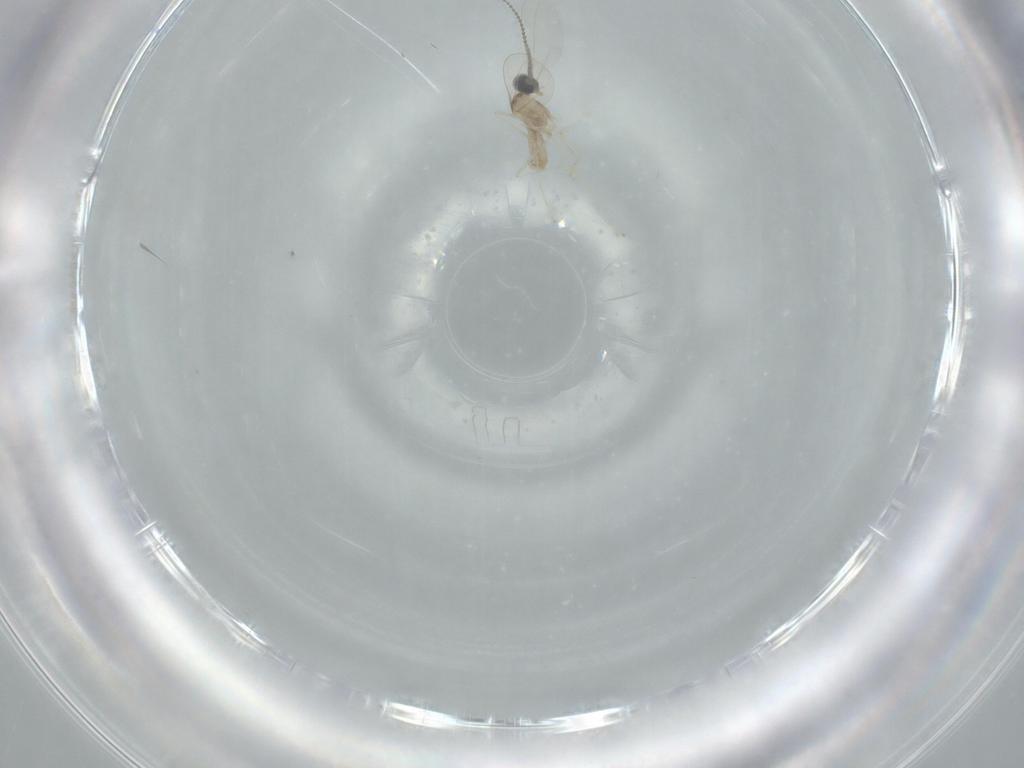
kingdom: Animalia
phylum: Arthropoda
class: Insecta
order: Diptera
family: Cecidomyiidae
